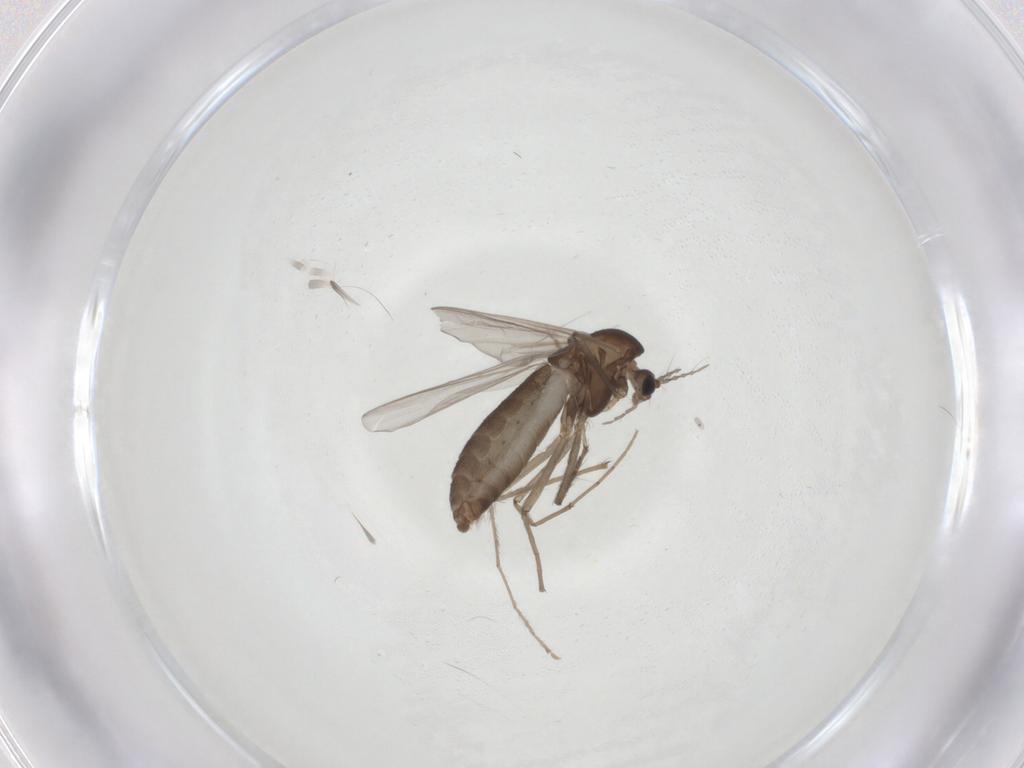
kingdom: Animalia
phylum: Arthropoda
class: Insecta
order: Diptera
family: Chironomidae
